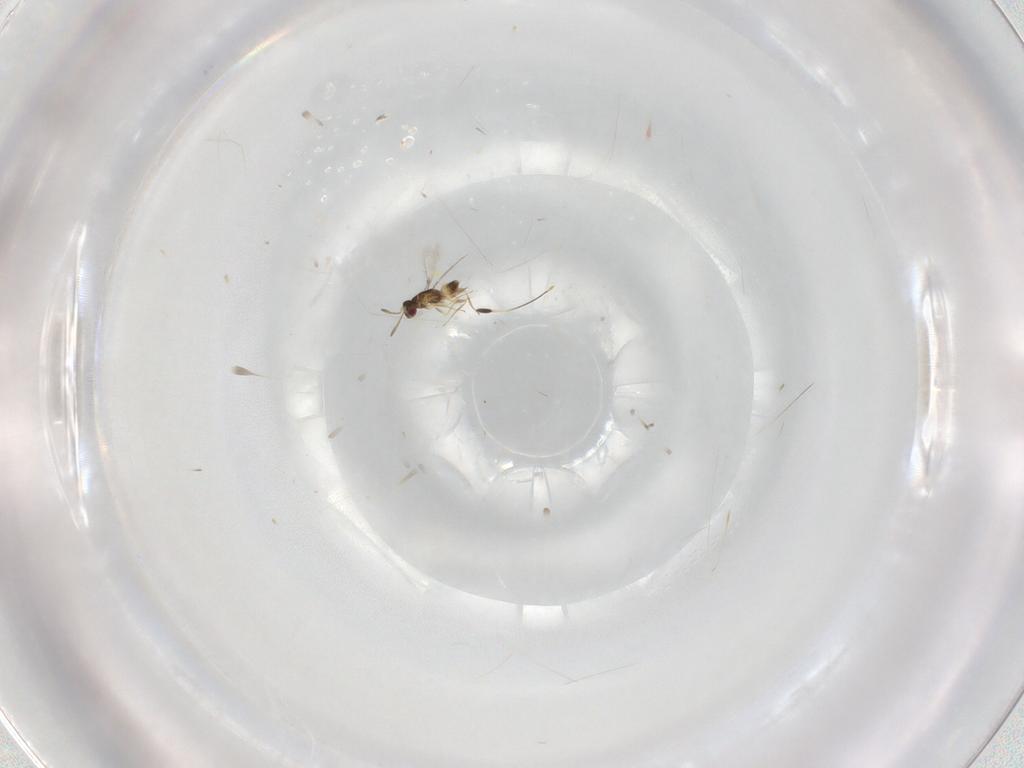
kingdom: Animalia
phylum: Arthropoda
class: Insecta
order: Hymenoptera
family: Mymaridae
